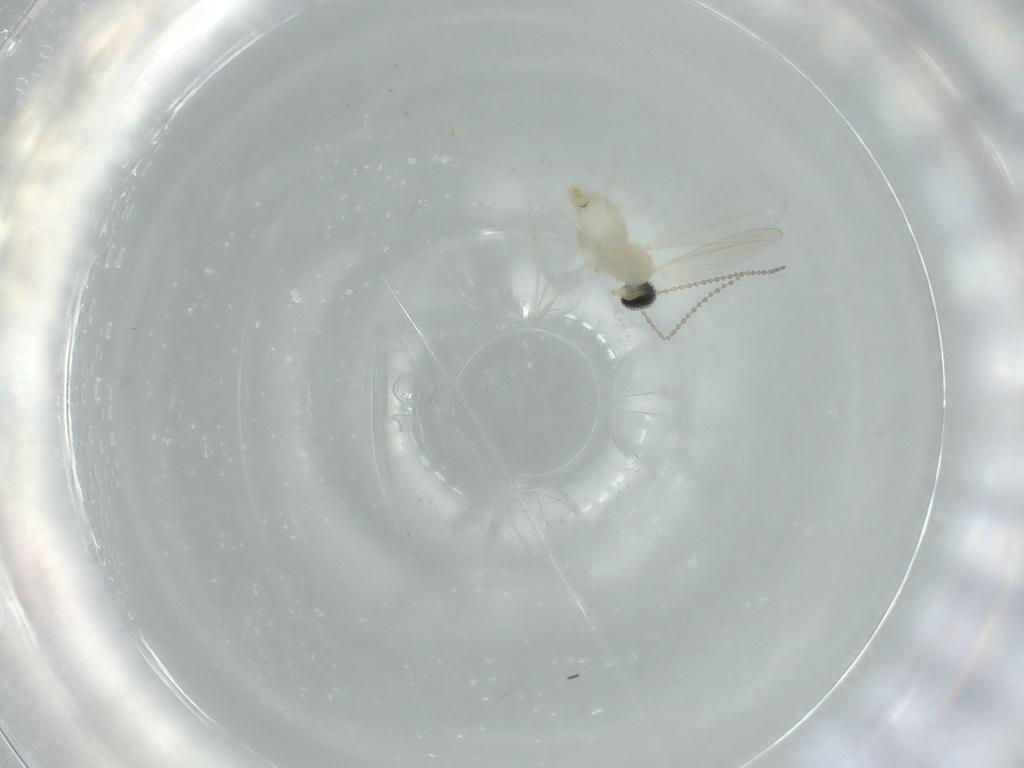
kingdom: Animalia
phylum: Arthropoda
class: Insecta
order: Diptera
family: Cecidomyiidae
